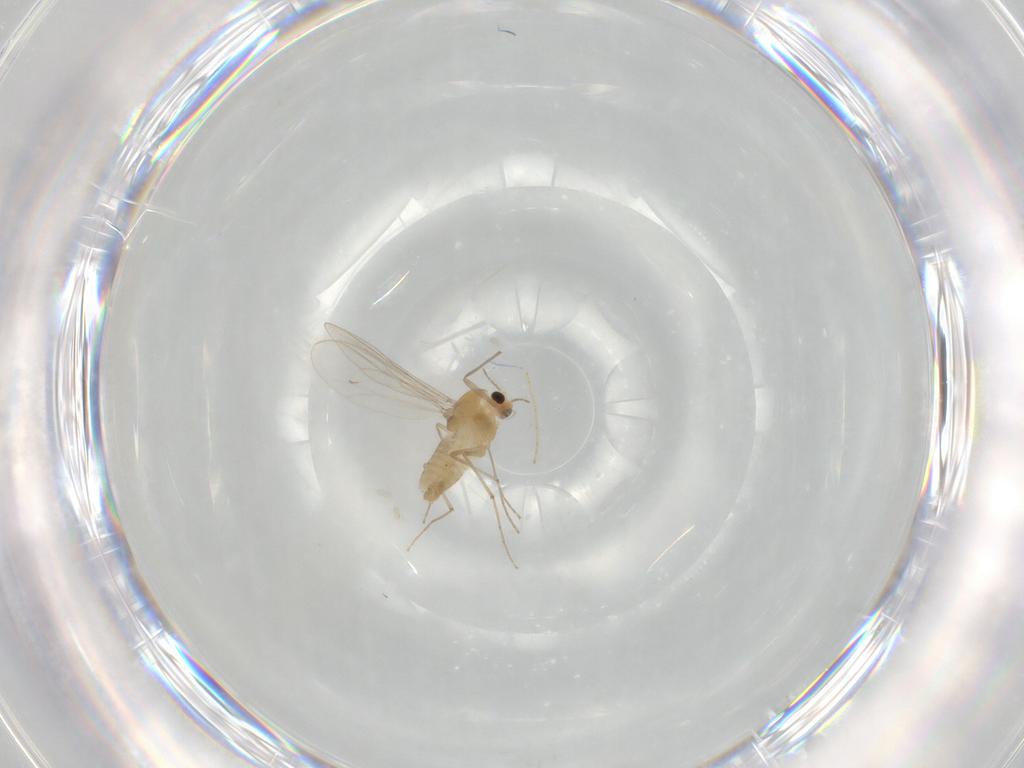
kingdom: Animalia
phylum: Arthropoda
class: Insecta
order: Diptera
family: Chironomidae
